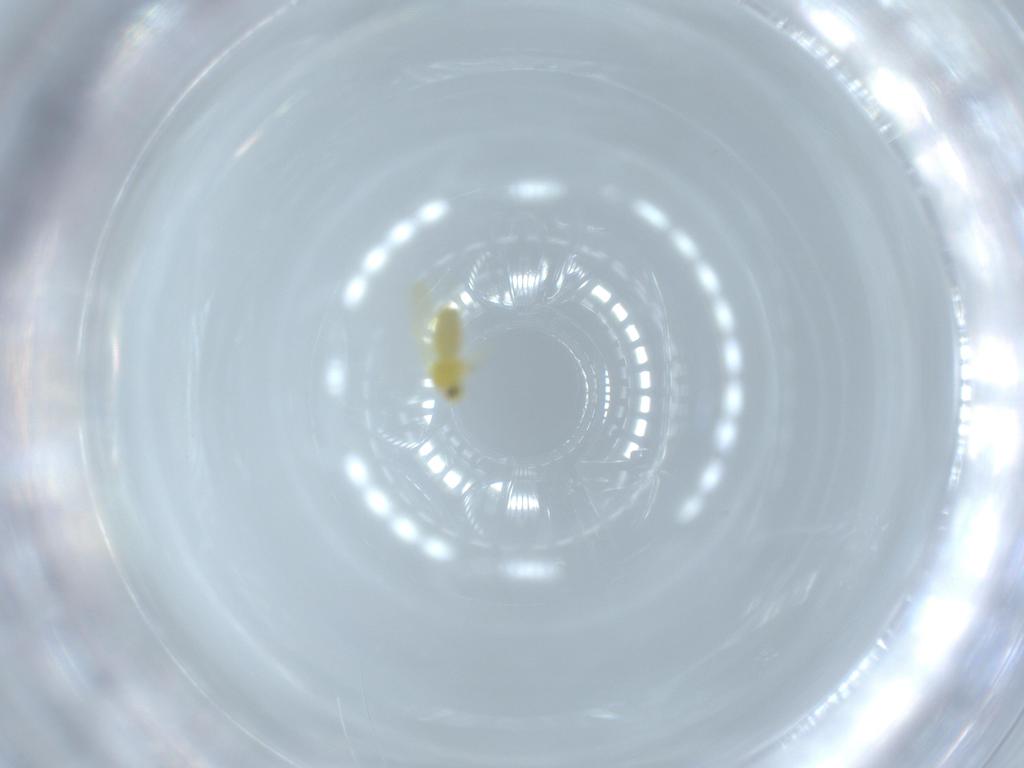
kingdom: Animalia
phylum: Arthropoda
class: Insecta
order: Hemiptera
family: Aleyrodidae
